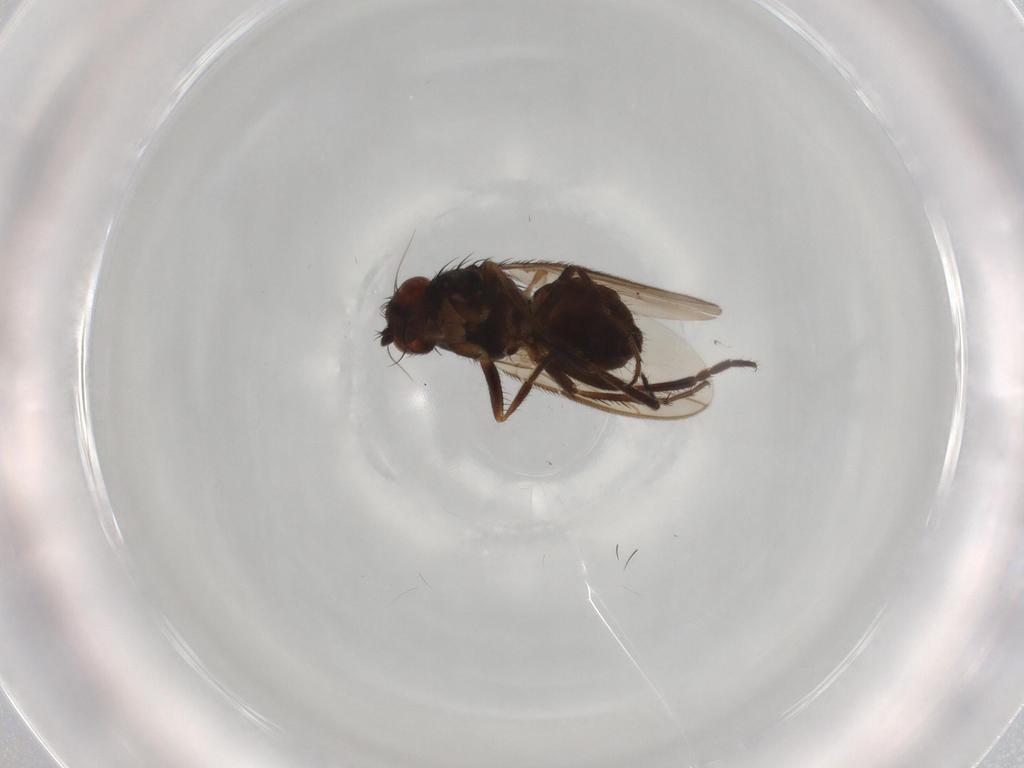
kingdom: Animalia
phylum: Arthropoda
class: Insecta
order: Diptera
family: Sphaeroceridae
